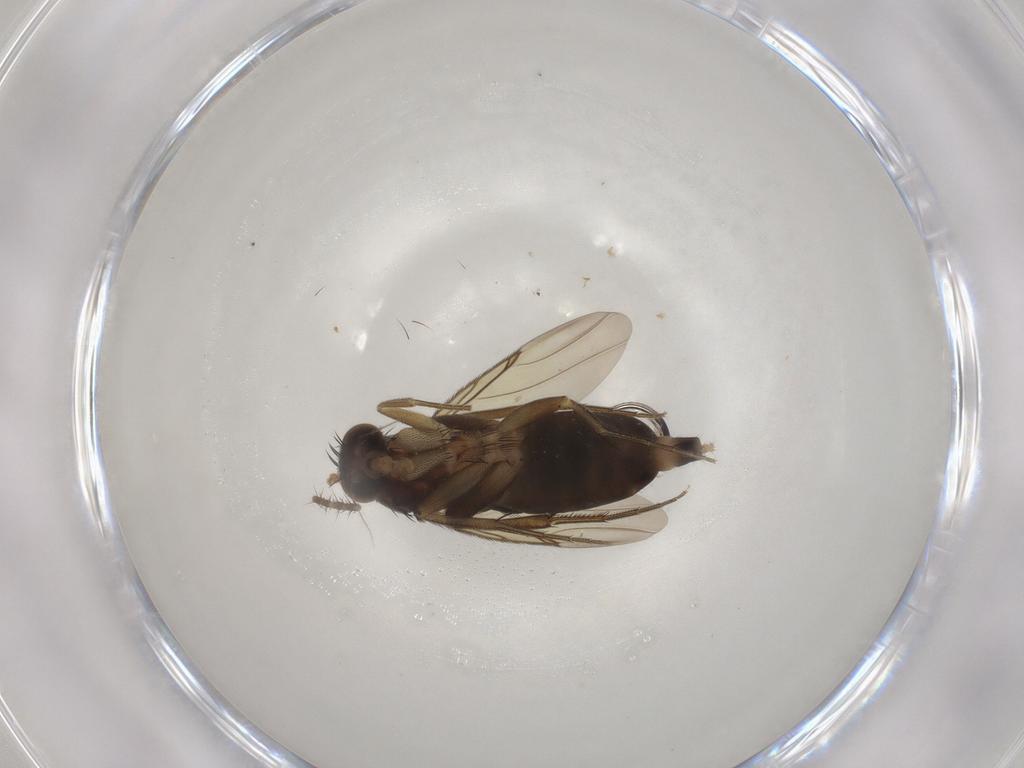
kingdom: Animalia
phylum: Arthropoda
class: Insecta
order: Diptera
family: Phoridae
